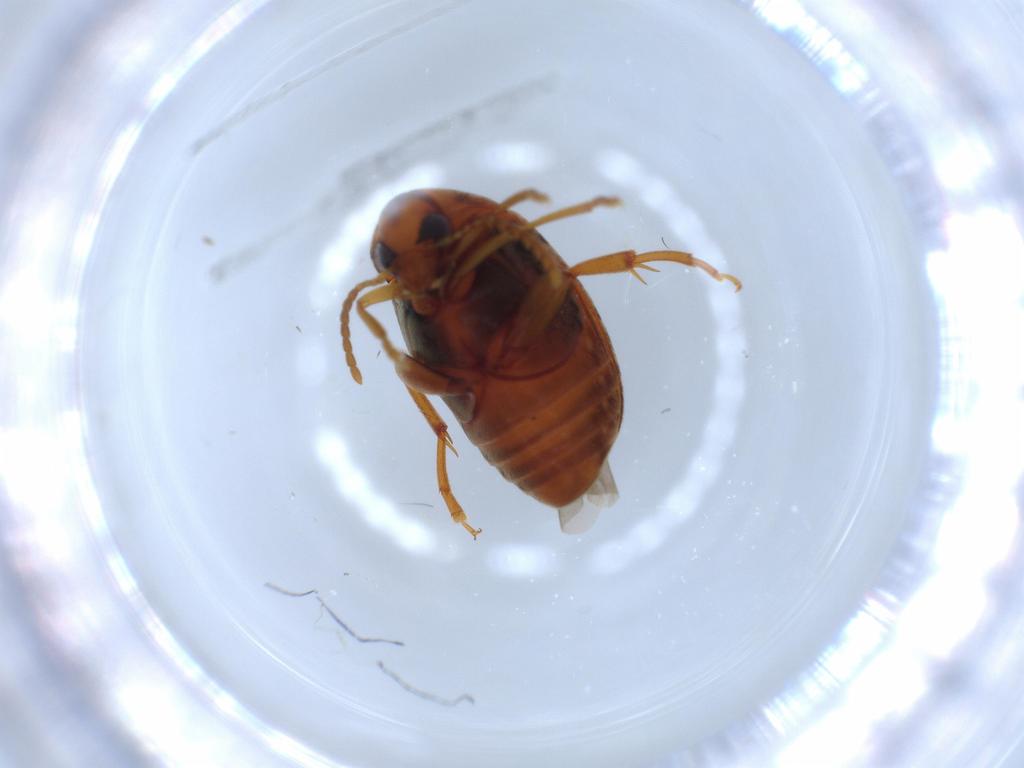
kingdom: Animalia
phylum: Arthropoda
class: Insecta
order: Coleoptera
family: Chrysomelidae
